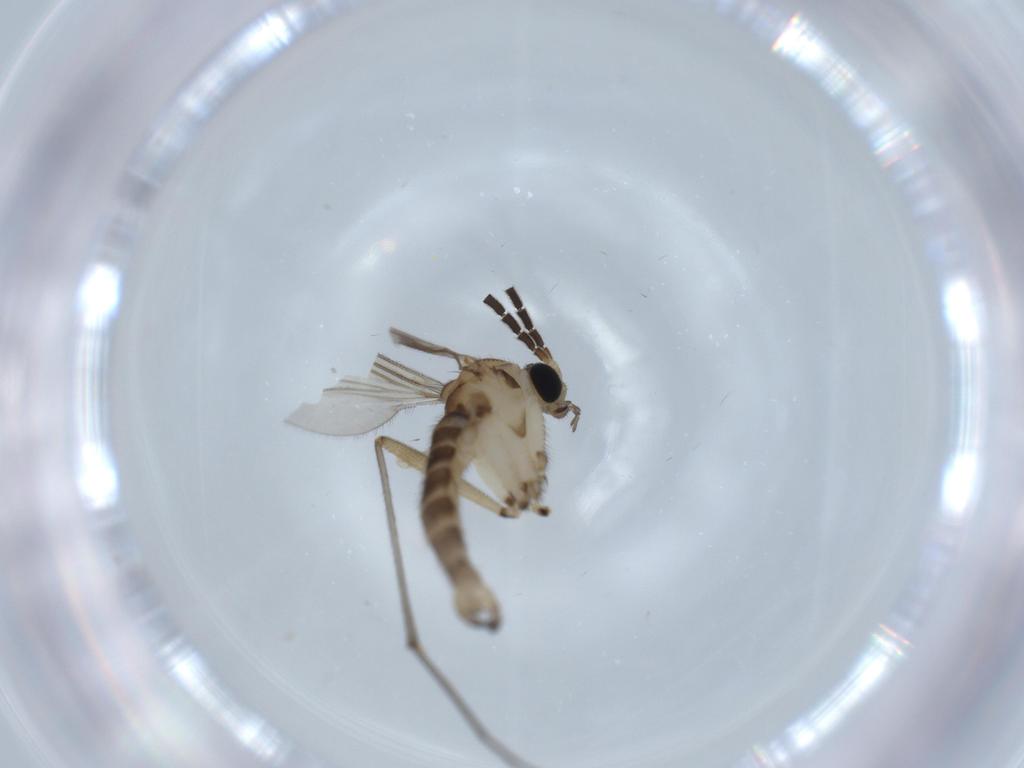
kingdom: Animalia
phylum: Arthropoda
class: Insecta
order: Diptera
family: Sciaridae
